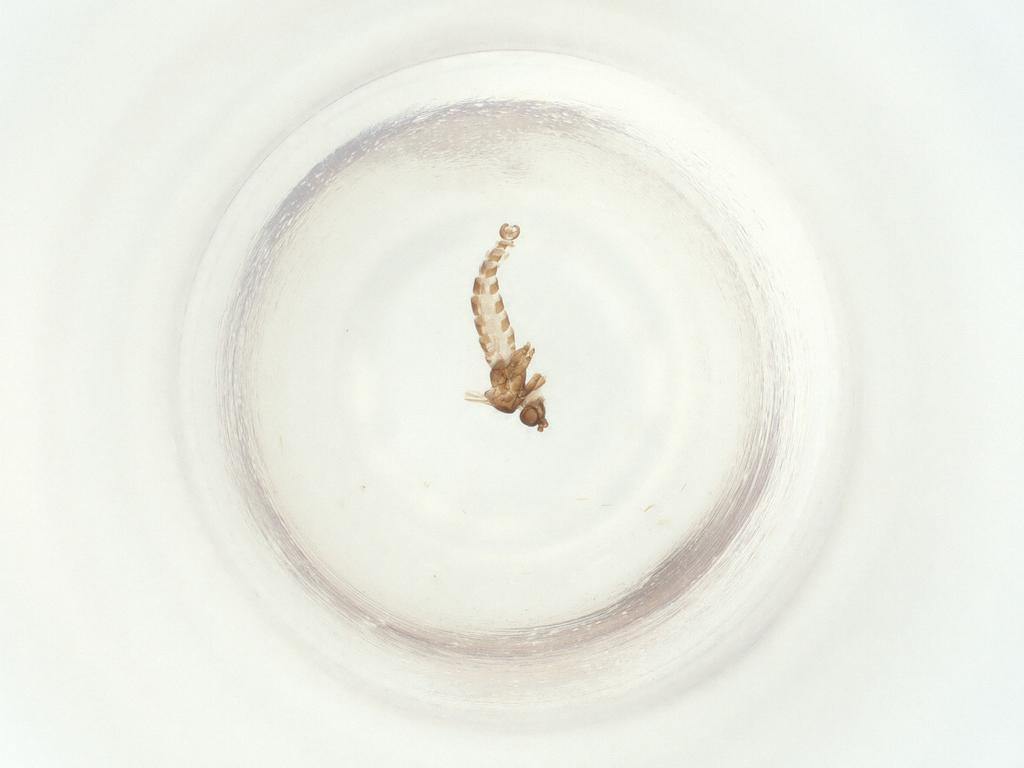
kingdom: Animalia
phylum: Arthropoda
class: Insecta
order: Diptera
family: Sciaridae
